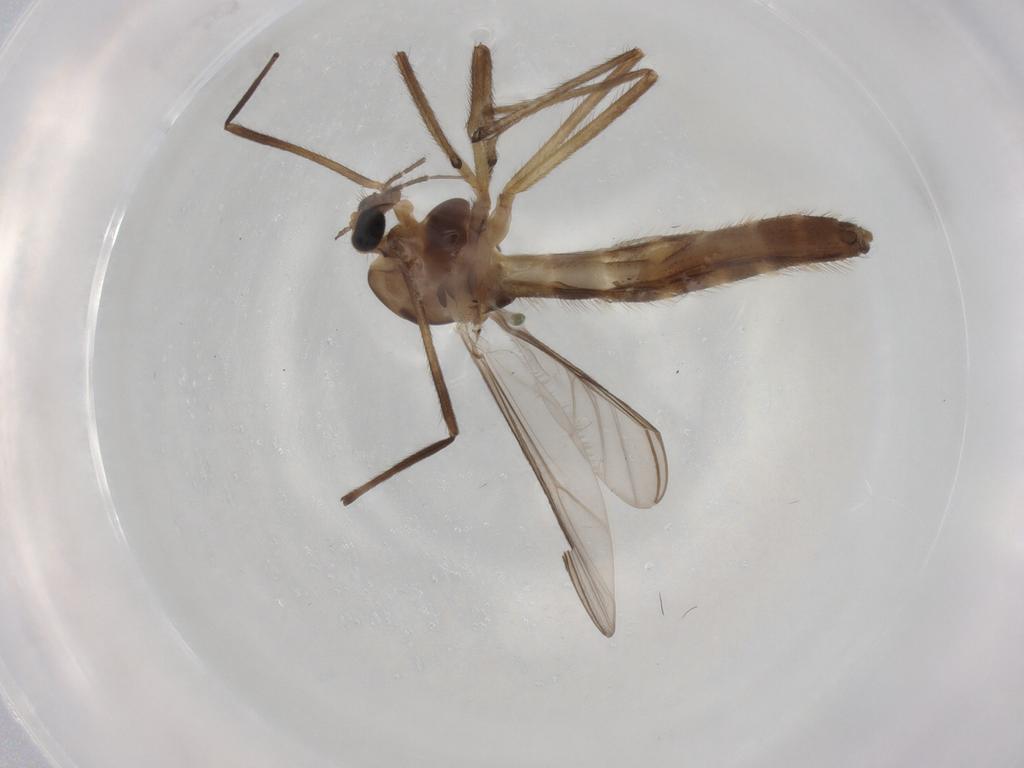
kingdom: Animalia
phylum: Arthropoda
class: Insecta
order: Diptera
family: Chironomidae
